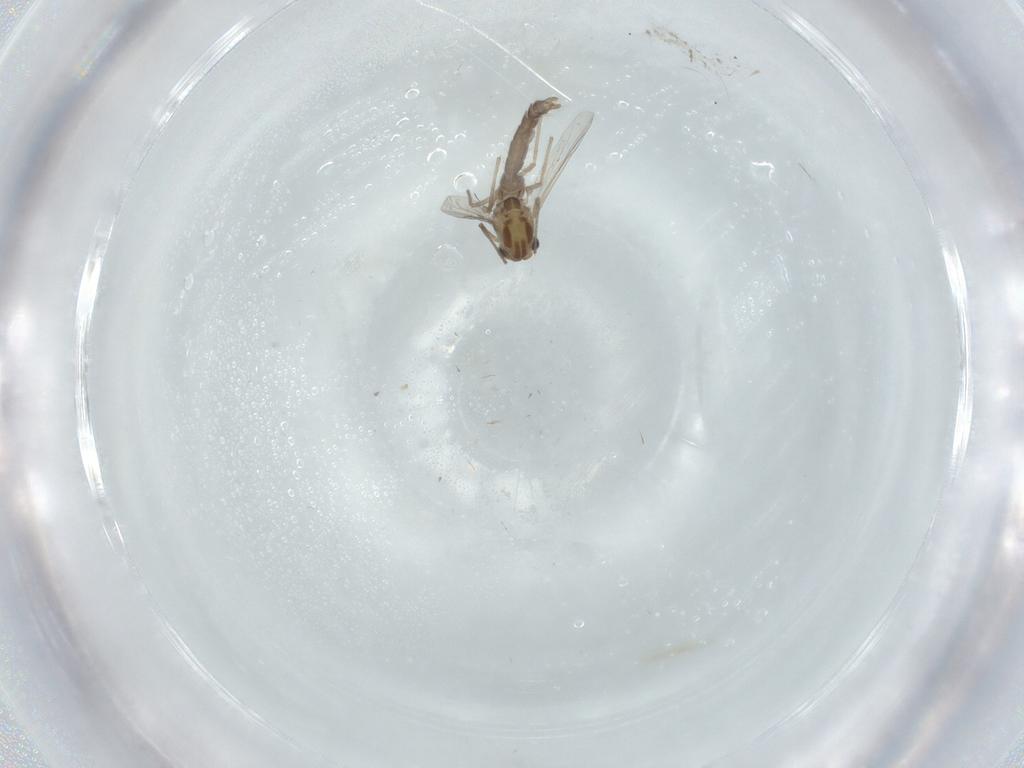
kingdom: Animalia
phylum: Arthropoda
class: Insecta
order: Diptera
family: Chironomidae
